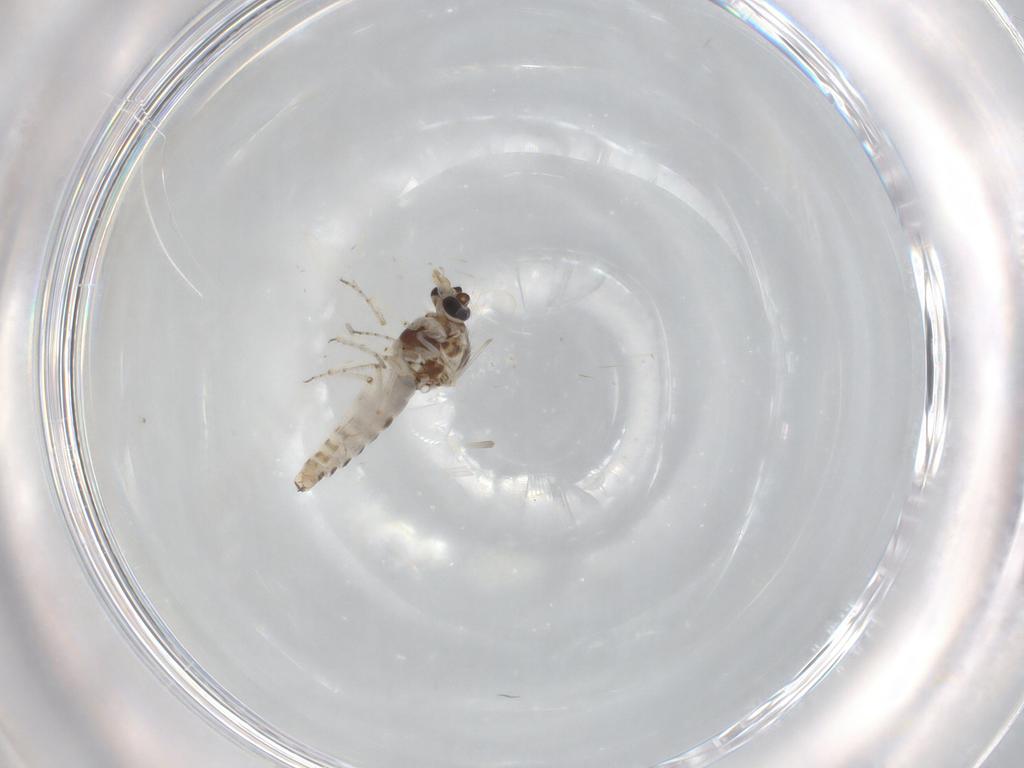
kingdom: Animalia
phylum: Arthropoda
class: Insecta
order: Diptera
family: Ceratopogonidae
